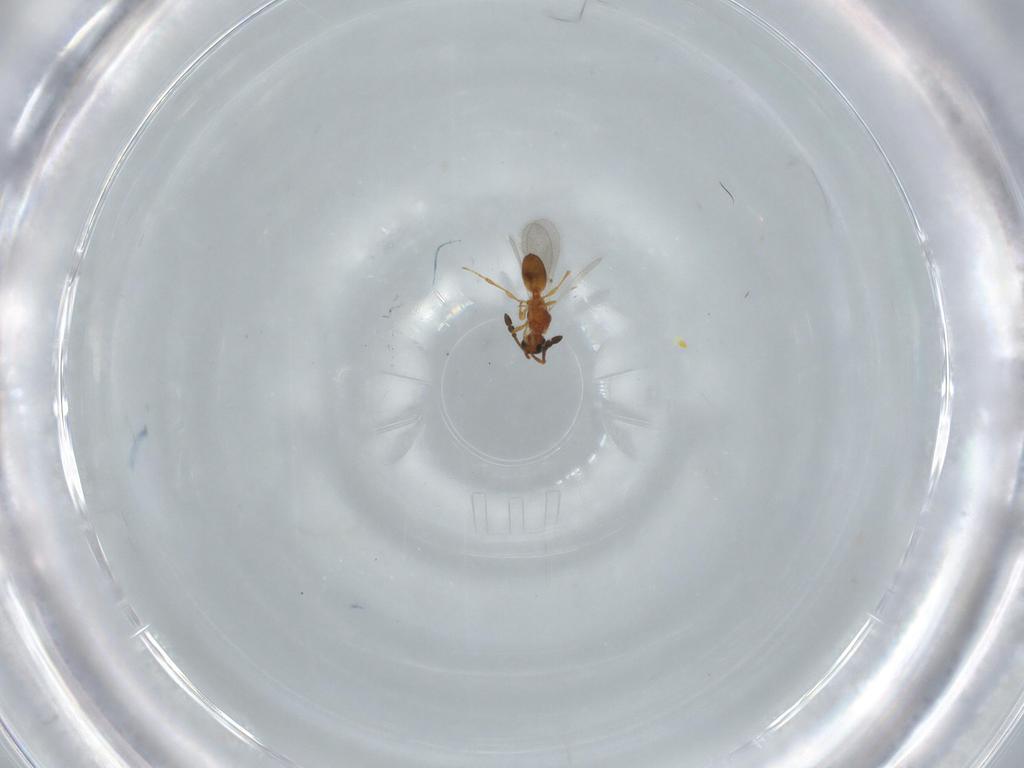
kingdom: Animalia
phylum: Arthropoda
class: Insecta
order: Hymenoptera
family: Diapriidae
